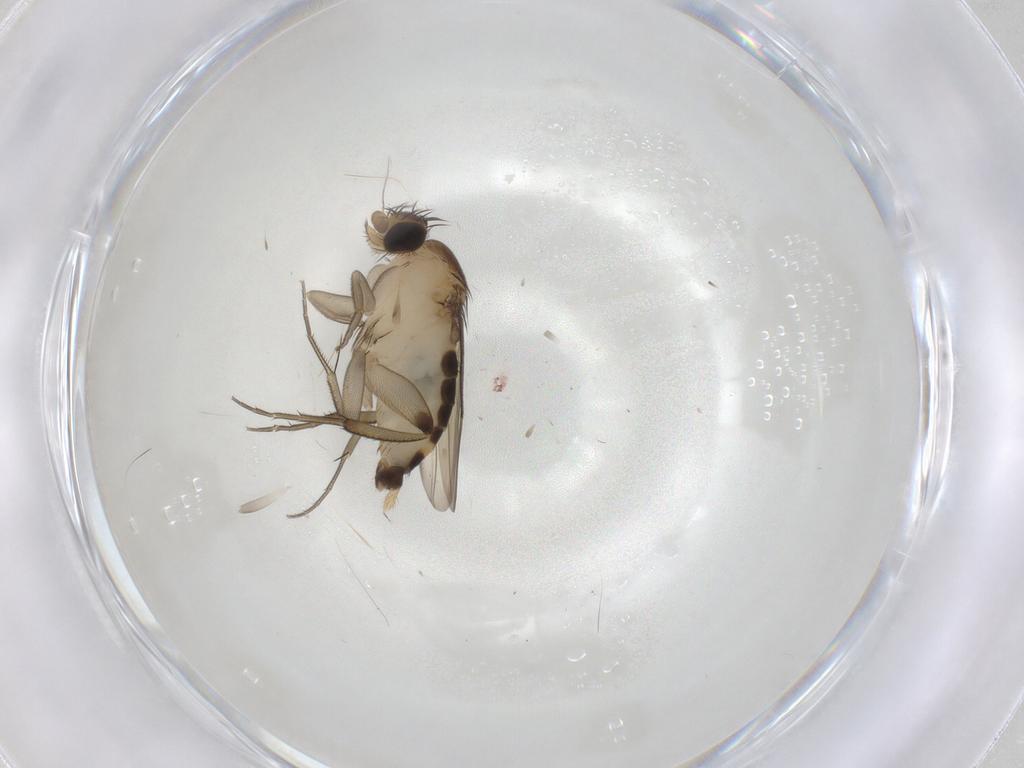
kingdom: Animalia
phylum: Arthropoda
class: Insecta
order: Diptera
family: Phoridae
